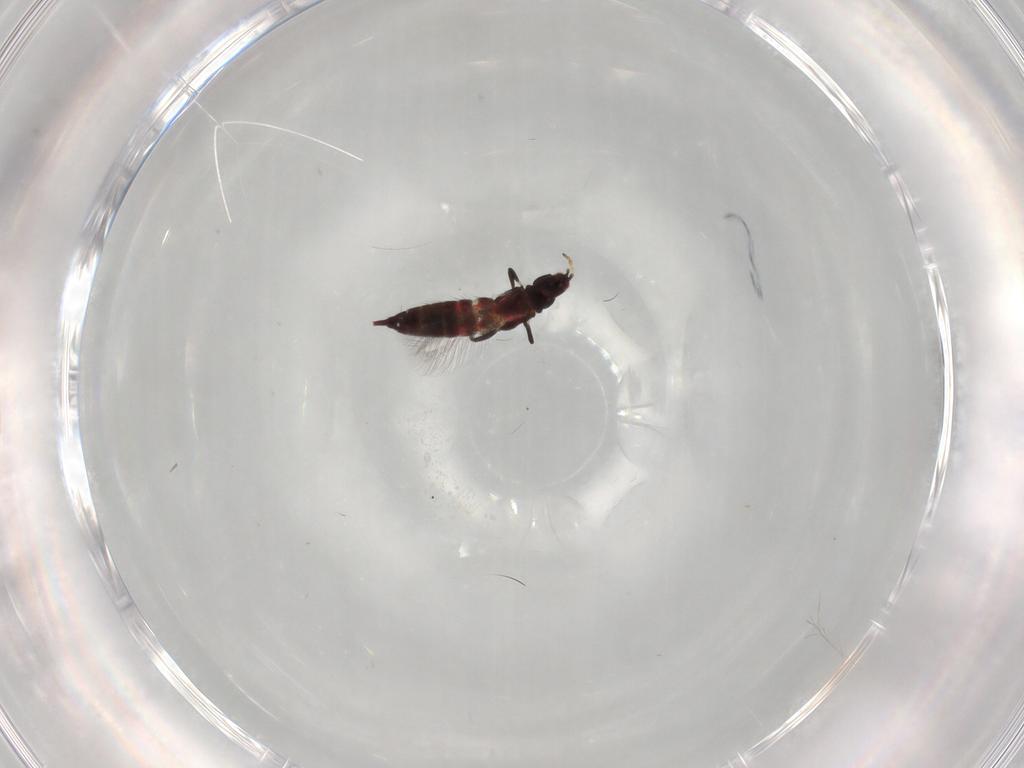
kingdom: Animalia
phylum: Arthropoda
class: Insecta
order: Thysanoptera
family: Phlaeothripidae
